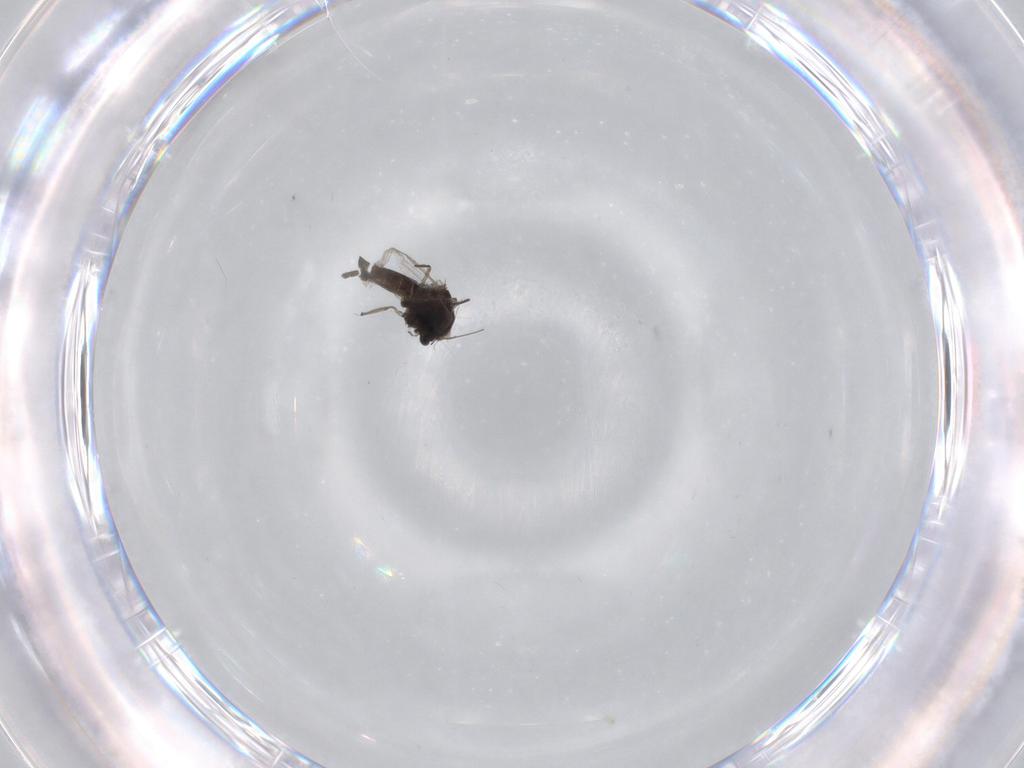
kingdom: Animalia
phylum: Arthropoda
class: Insecta
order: Diptera
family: Chironomidae
